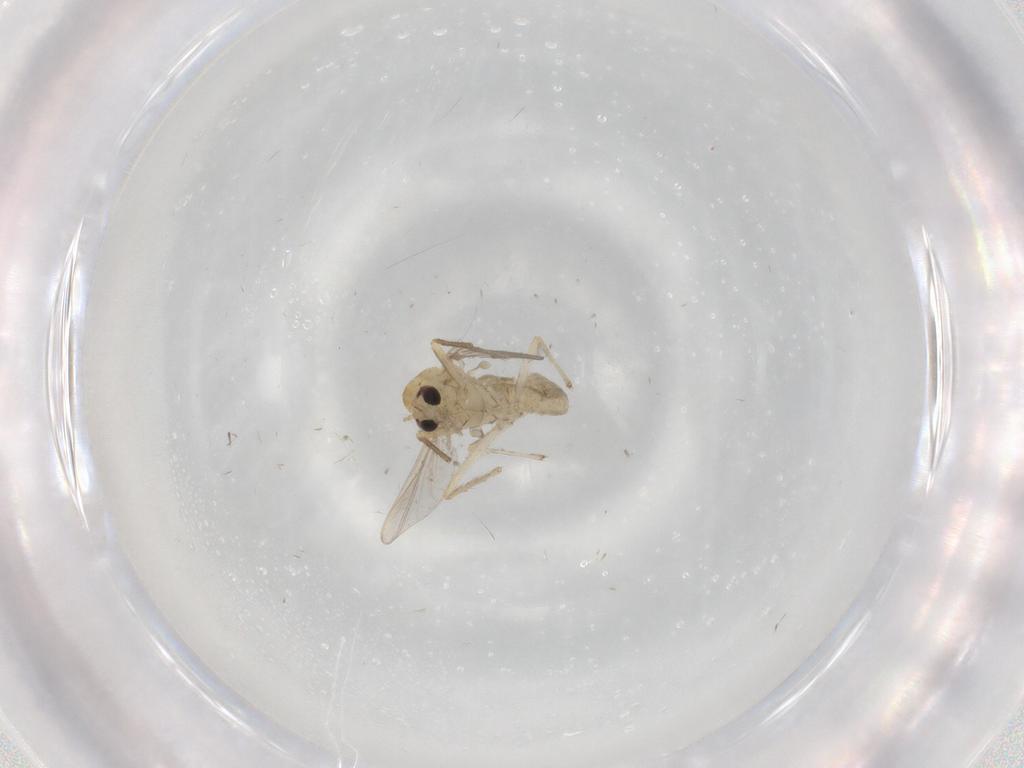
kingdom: Animalia
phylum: Arthropoda
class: Insecta
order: Diptera
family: Chironomidae
